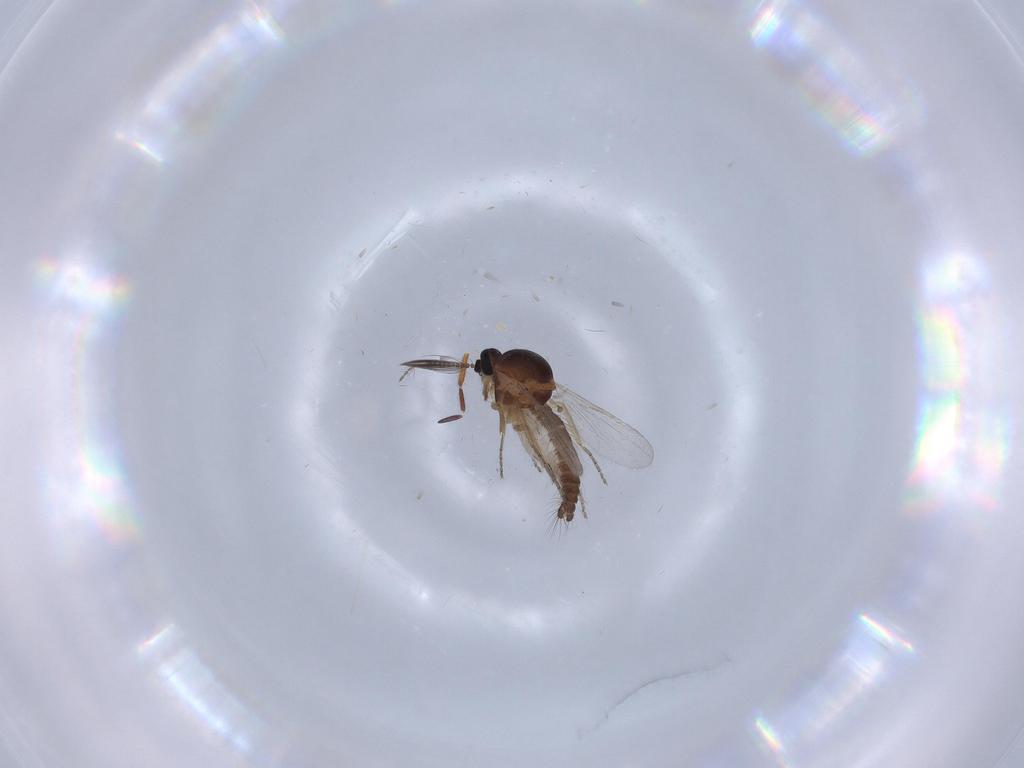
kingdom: Animalia
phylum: Arthropoda
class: Insecta
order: Diptera
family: Ceratopogonidae
